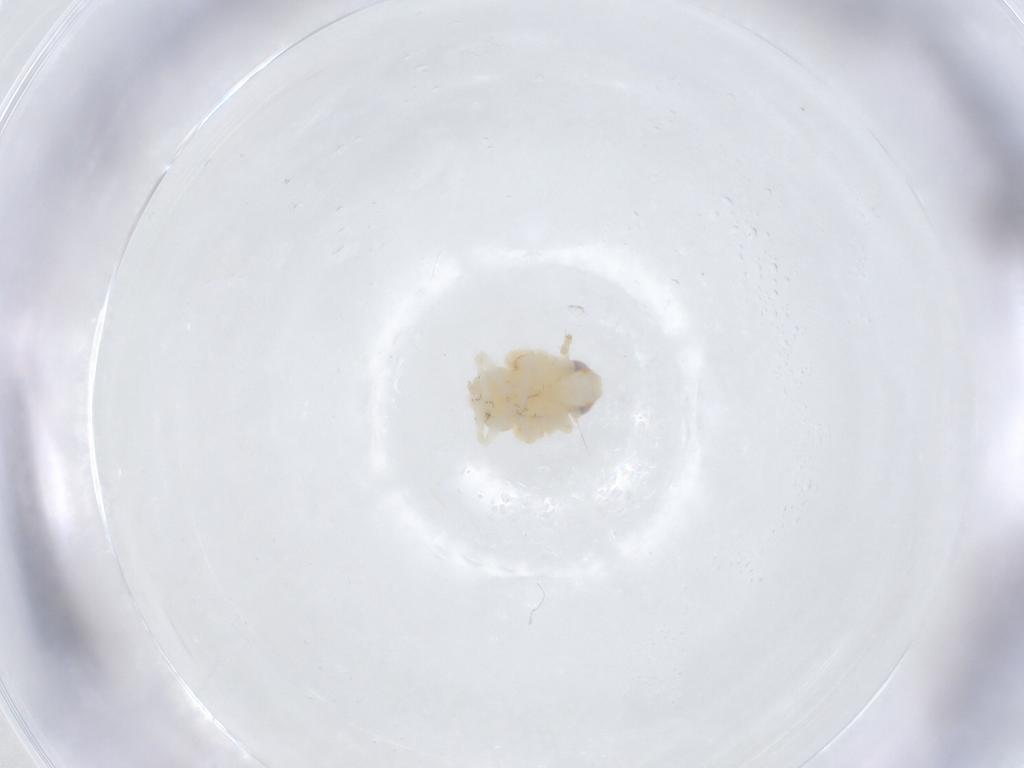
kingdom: Animalia
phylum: Arthropoda
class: Insecta
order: Hemiptera
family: Nogodinidae
